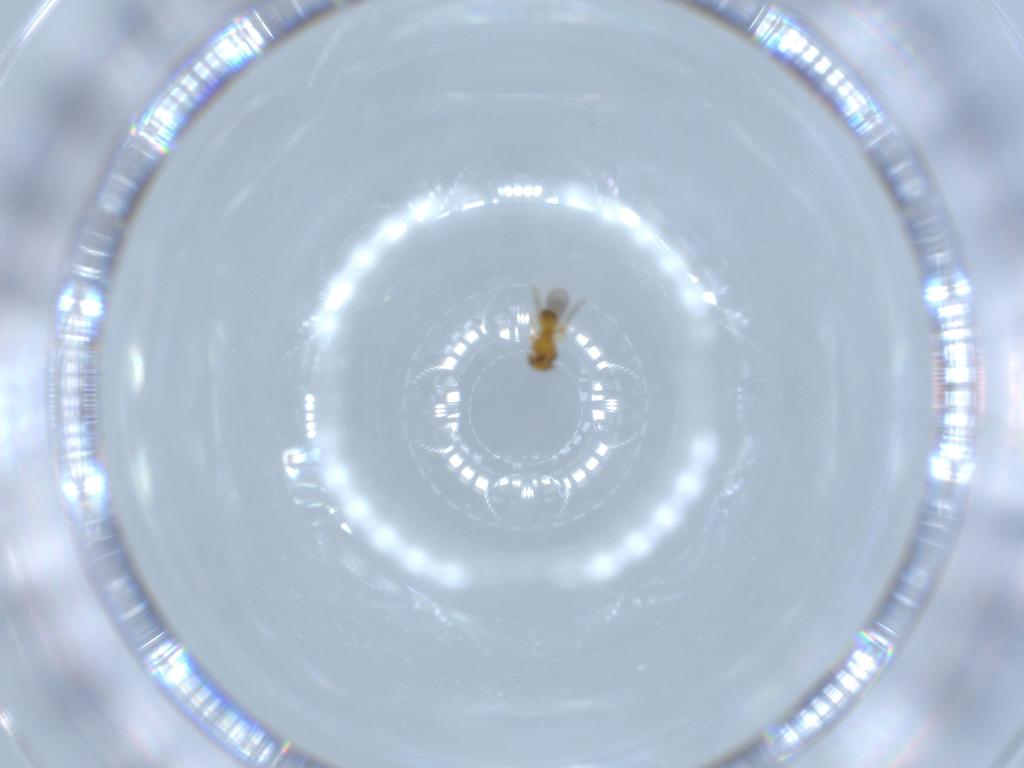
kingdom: Animalia
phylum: Arthropoda
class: Insecta
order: Hymenoptera
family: Platygastridae
